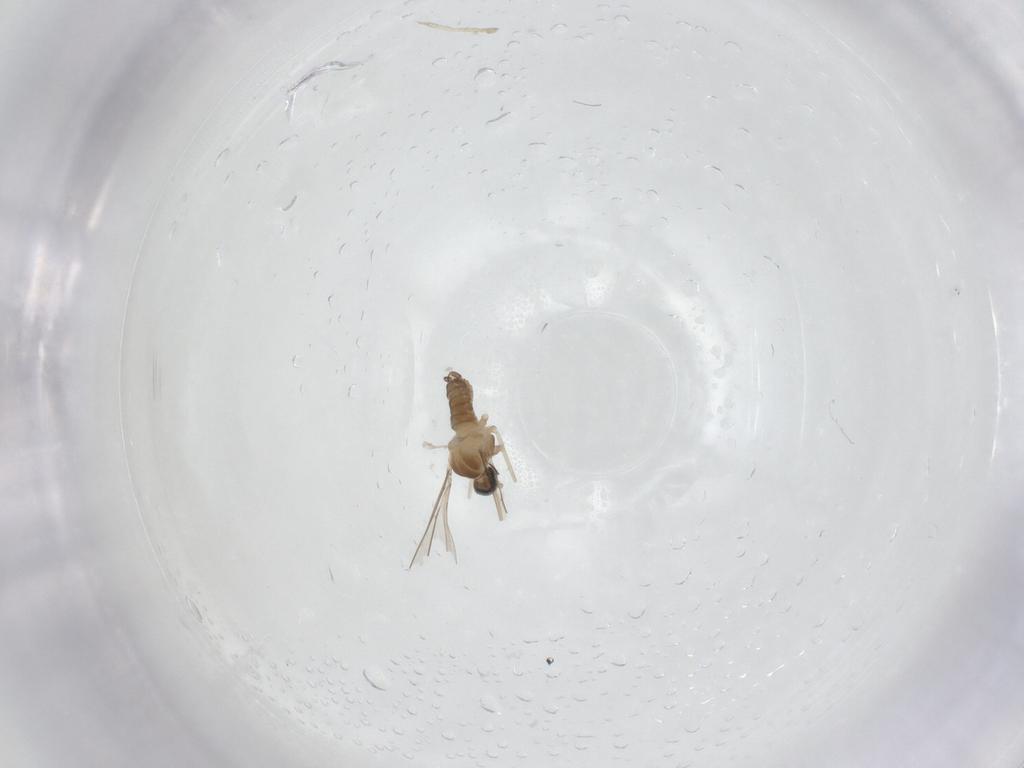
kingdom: Animalia
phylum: Arthropoda
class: Insecta
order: Diptera
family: Cecidomyiidae
